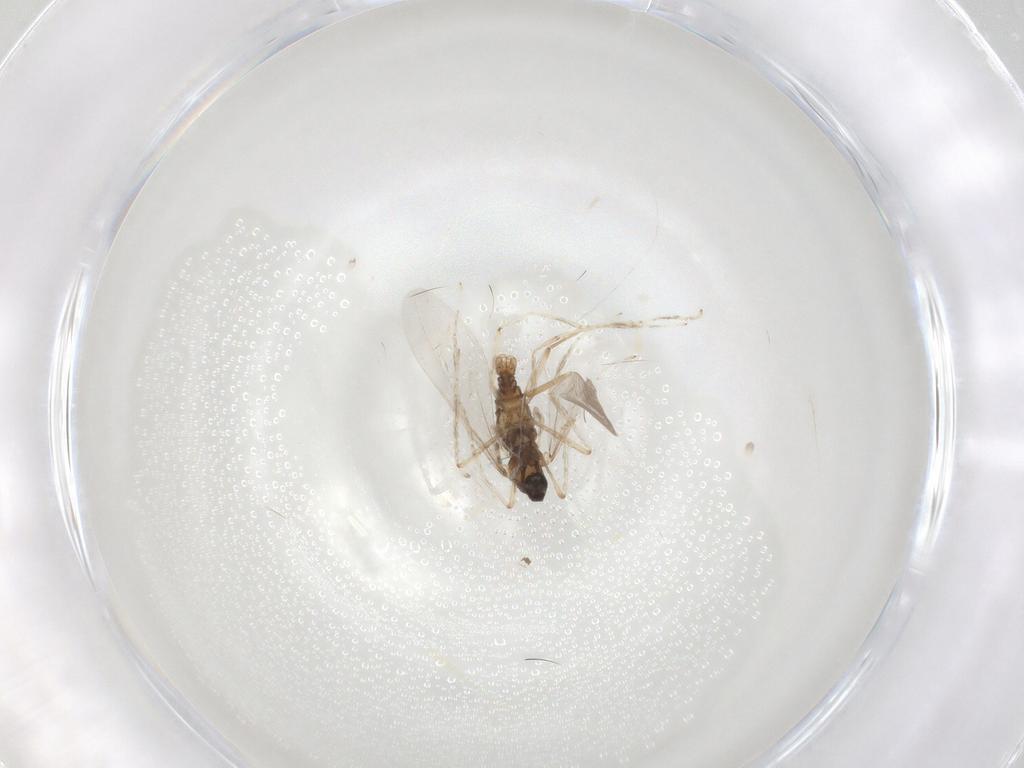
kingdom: Animalia
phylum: Arthropoda
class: Insecta
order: Diptera
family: Cecidomyiidae
